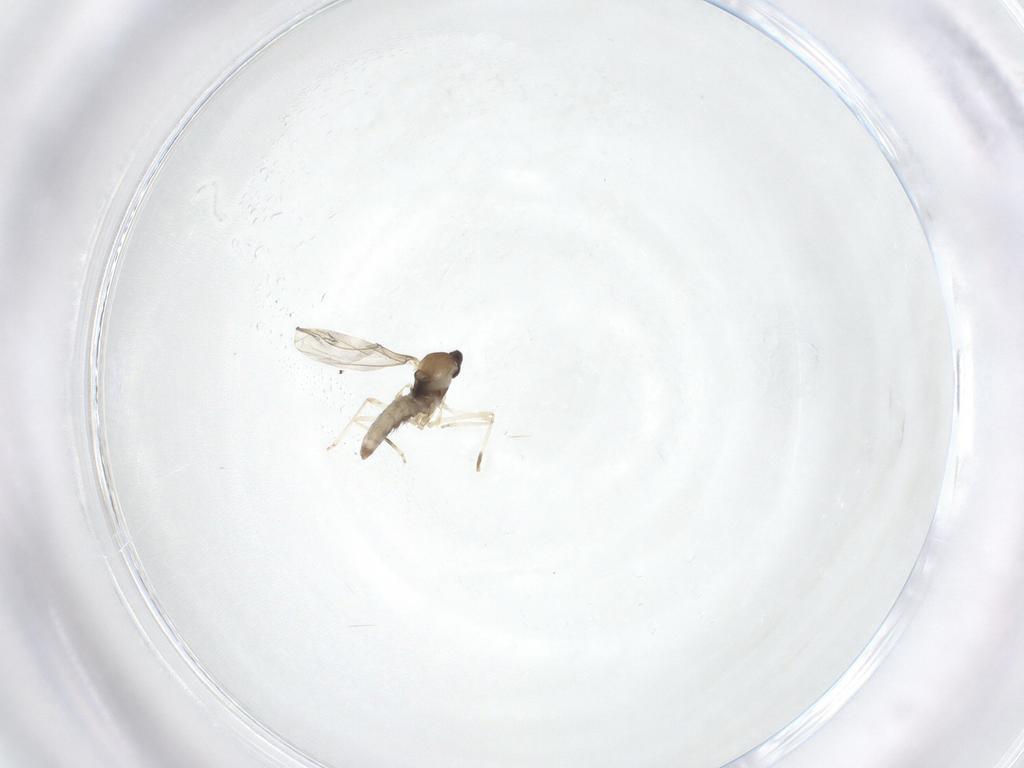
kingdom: Animalia
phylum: Arthropoda
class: Insecta
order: Diptera
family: Cecidomyiidae
